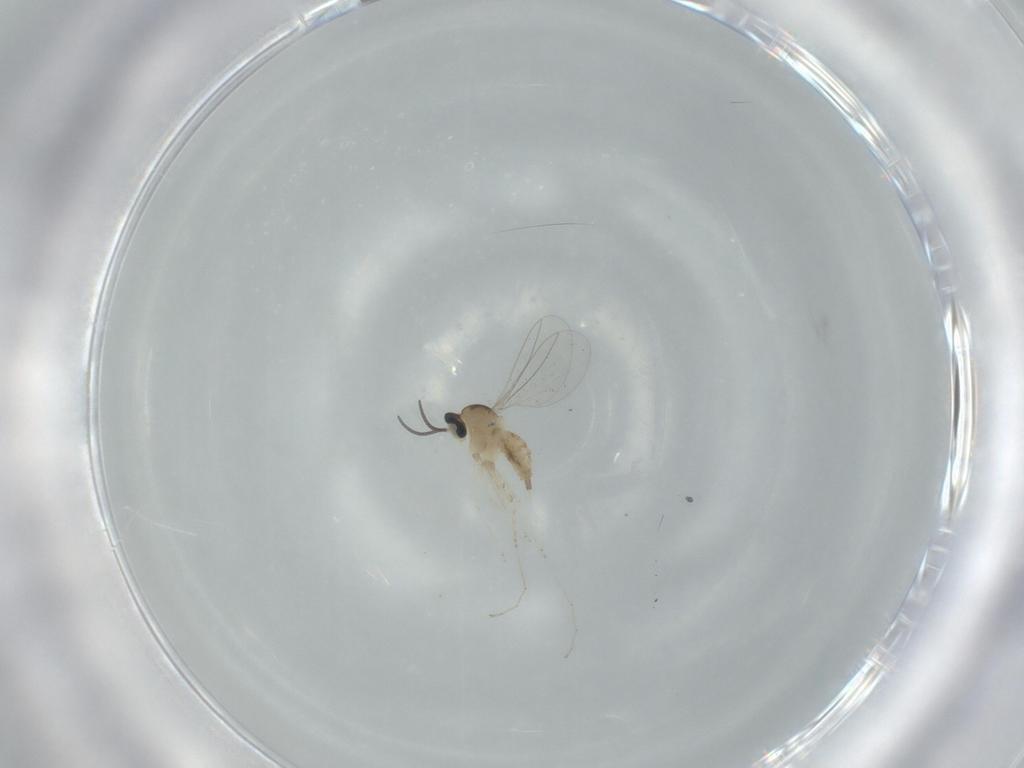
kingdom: Animalia
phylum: Arthropoda
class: Insecta
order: Diptera
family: Cecidomyiidae
